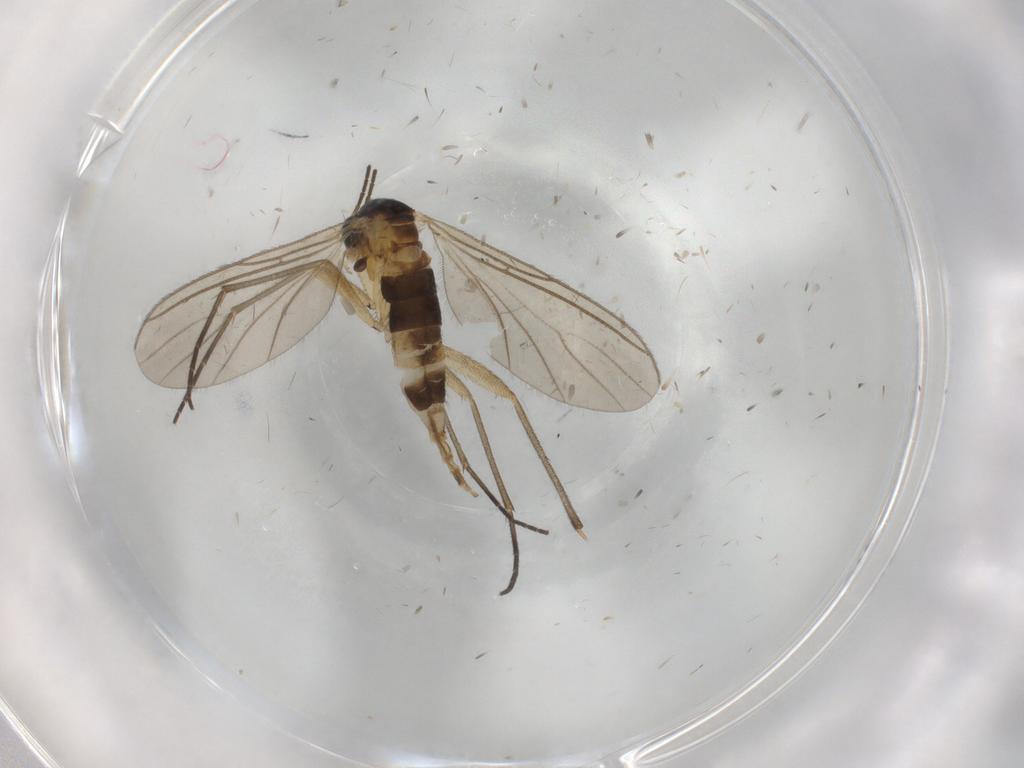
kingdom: Animalia
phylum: Arthropoda
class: Insecta
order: Diptera
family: Sciaridae
